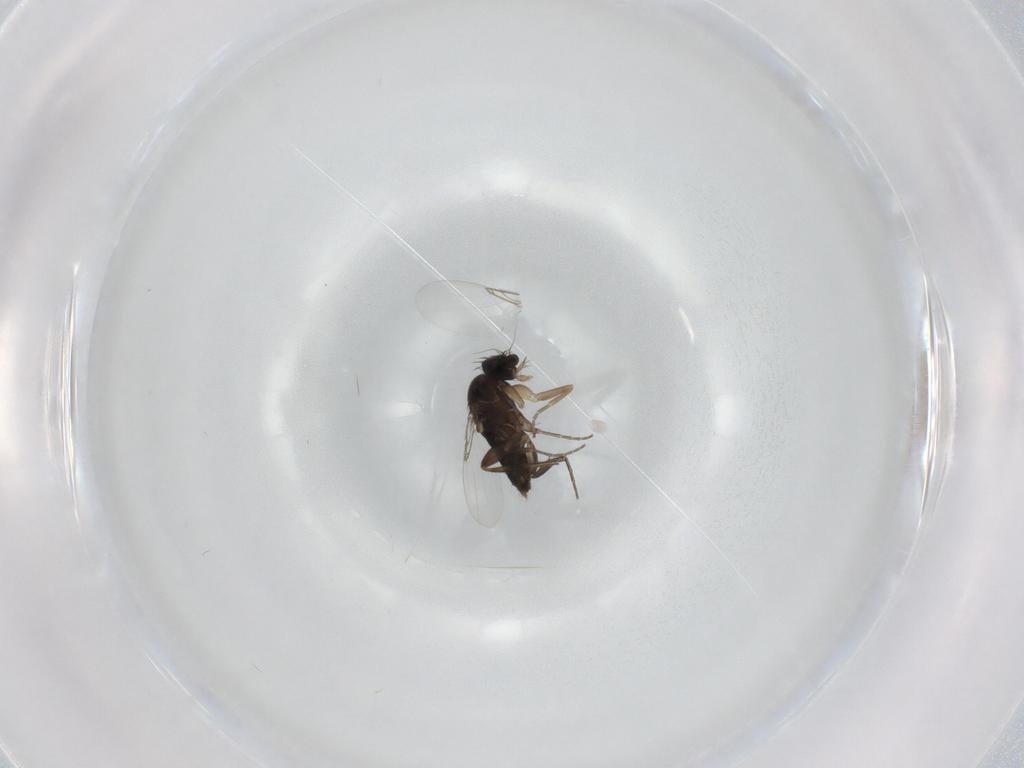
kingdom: Animalia
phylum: Arthropoda
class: Insecta
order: Diptera
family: Phoridae
